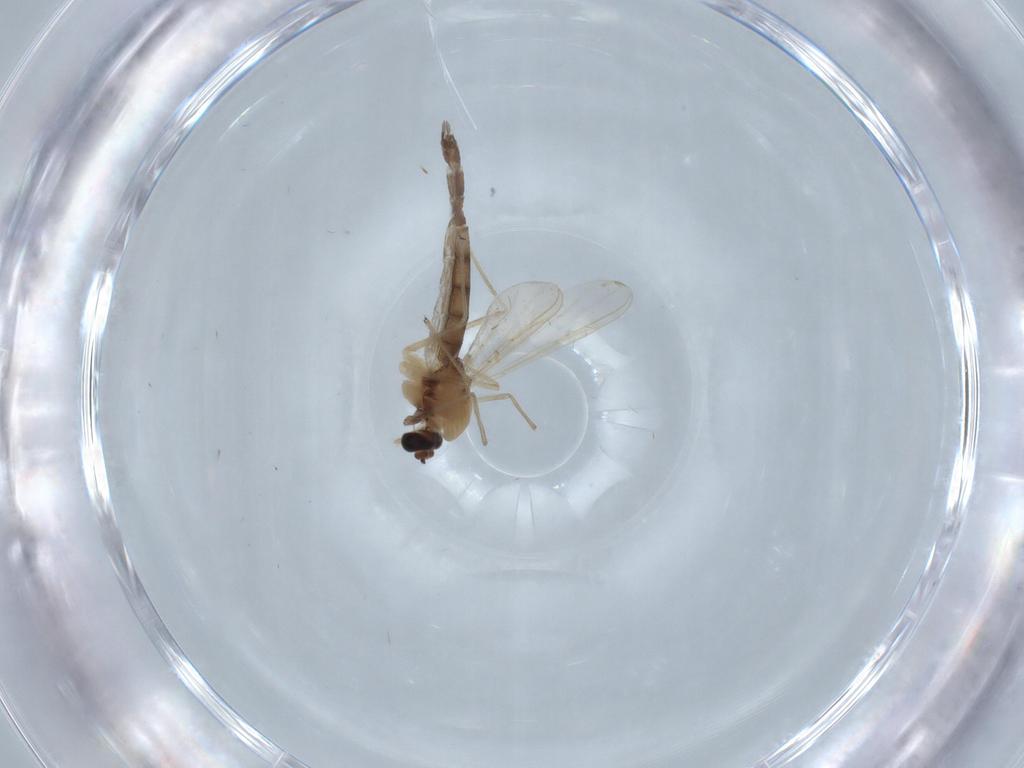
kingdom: Animalia
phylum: Arthropoda
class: Insecta
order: Diptera
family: Chironomidae
